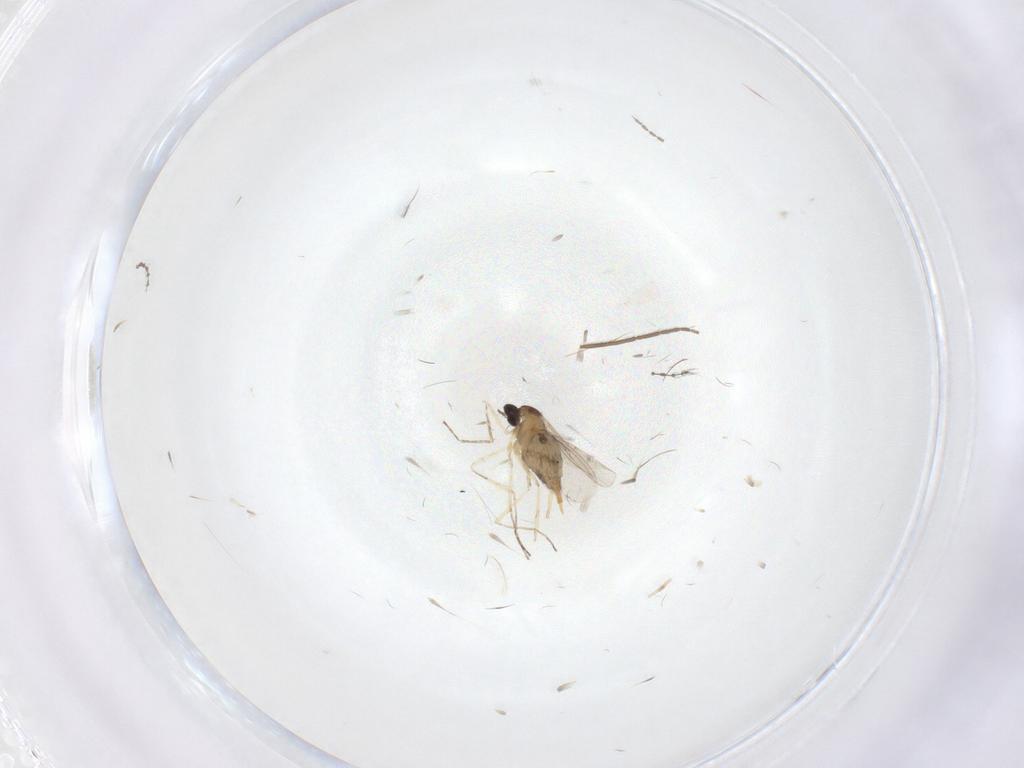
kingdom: Animalia
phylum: Arthropoda
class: Insecta
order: Diptera
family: Cecidomyiidae
